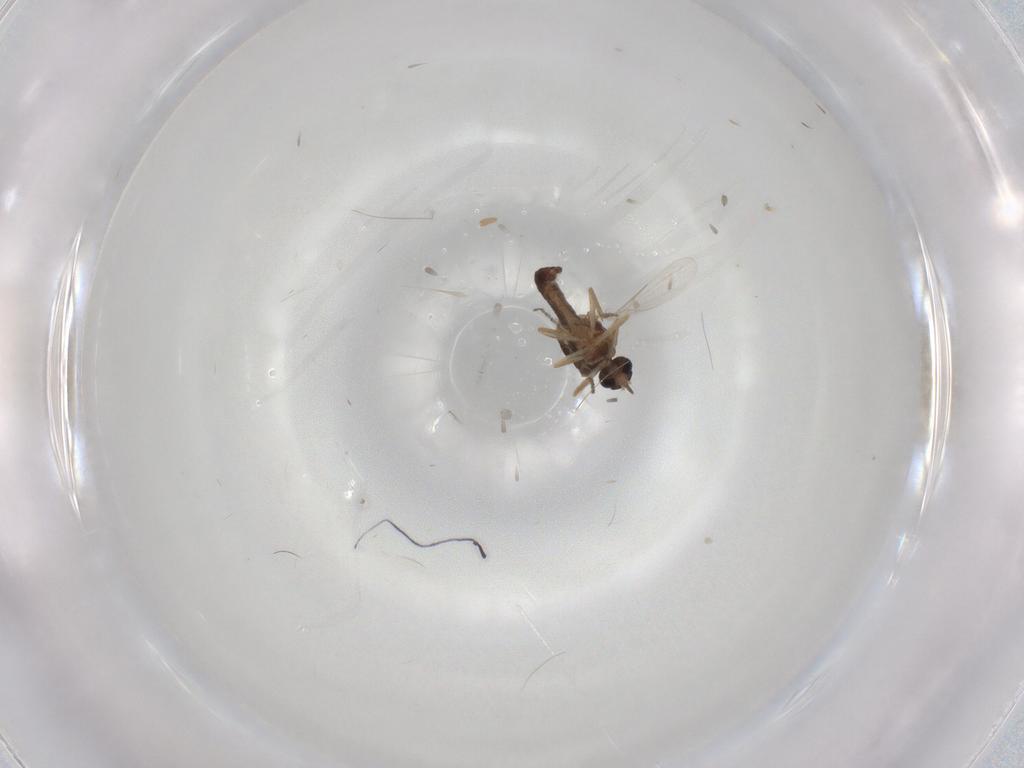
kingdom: Animalia
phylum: Arthropoda
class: Insecta
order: Diptera
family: Ceratopogonidae
